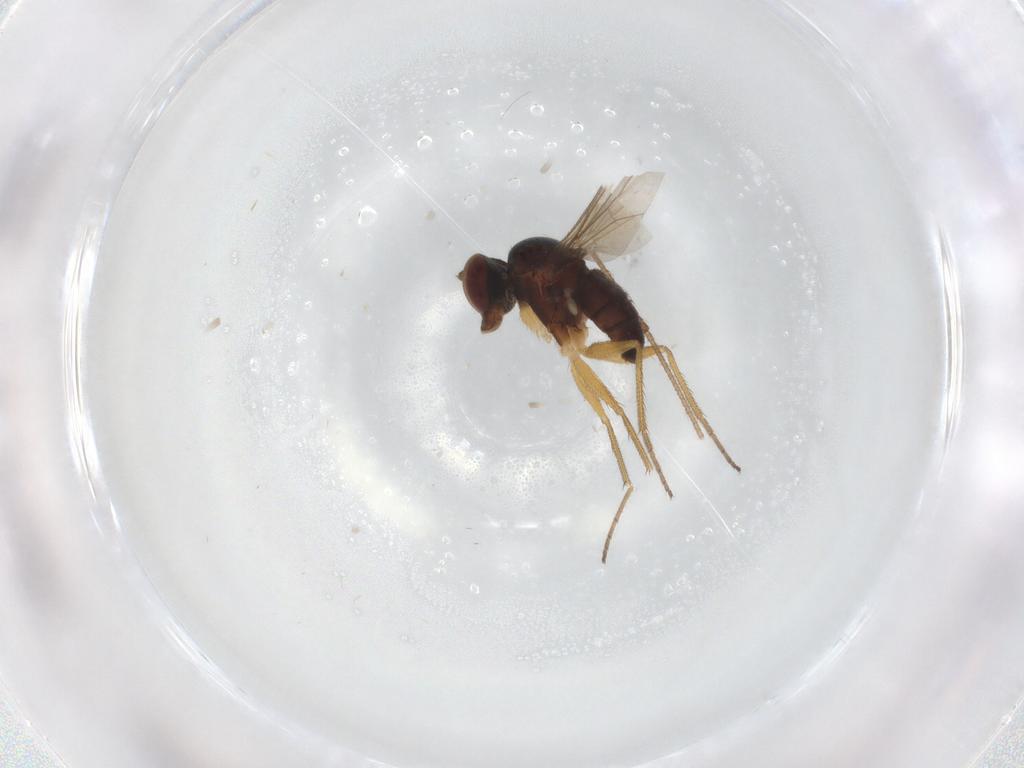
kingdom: Animalia
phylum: Arthropoda
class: Insecta
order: Diptera
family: Dolichopodidae
